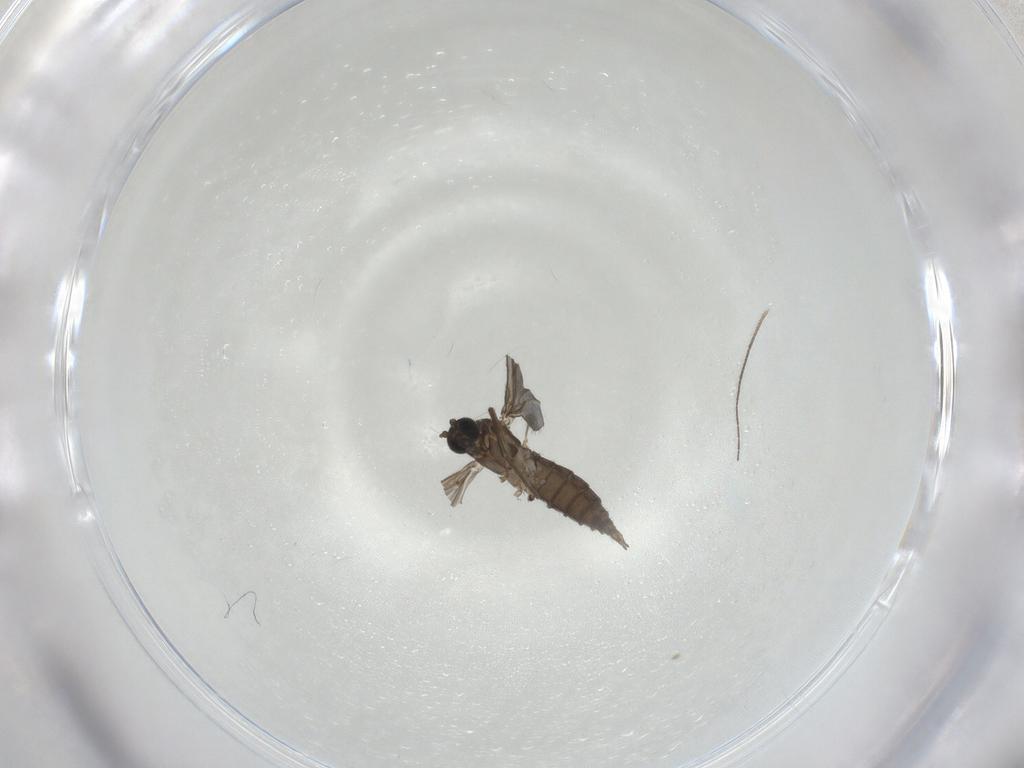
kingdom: Animalia
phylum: Arthropoda
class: Insecta
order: Diptera
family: Sciaridae
